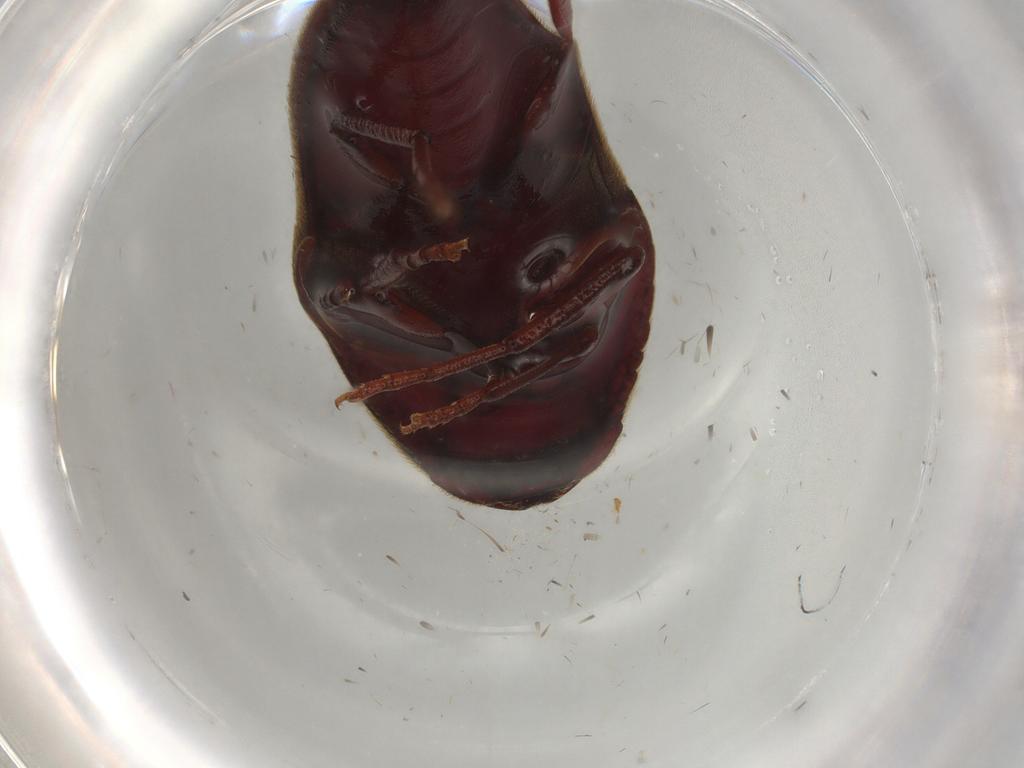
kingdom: Animalia
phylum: Arthropoda
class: Insecta
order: Coleoptera
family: Eucnemidae
